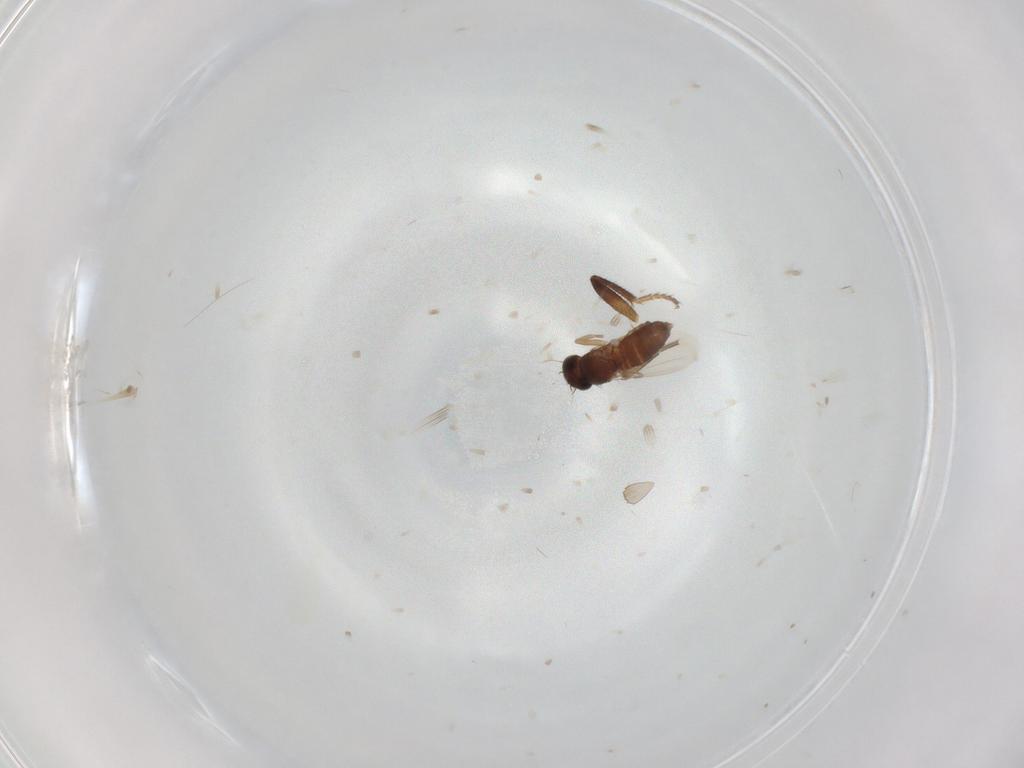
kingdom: Animalia
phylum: Arthropoda
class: Insecta
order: Diptera
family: Phoridae
